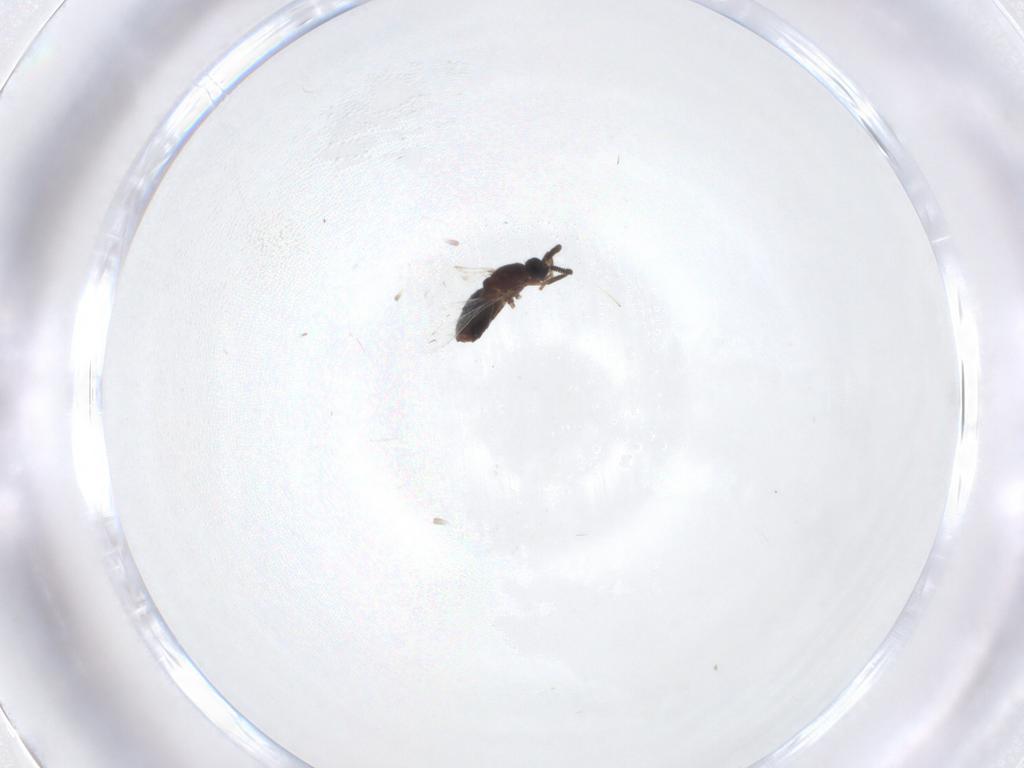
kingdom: Animalia
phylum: Arthropoda
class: Insecta
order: Diptera
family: Scatopsidae
